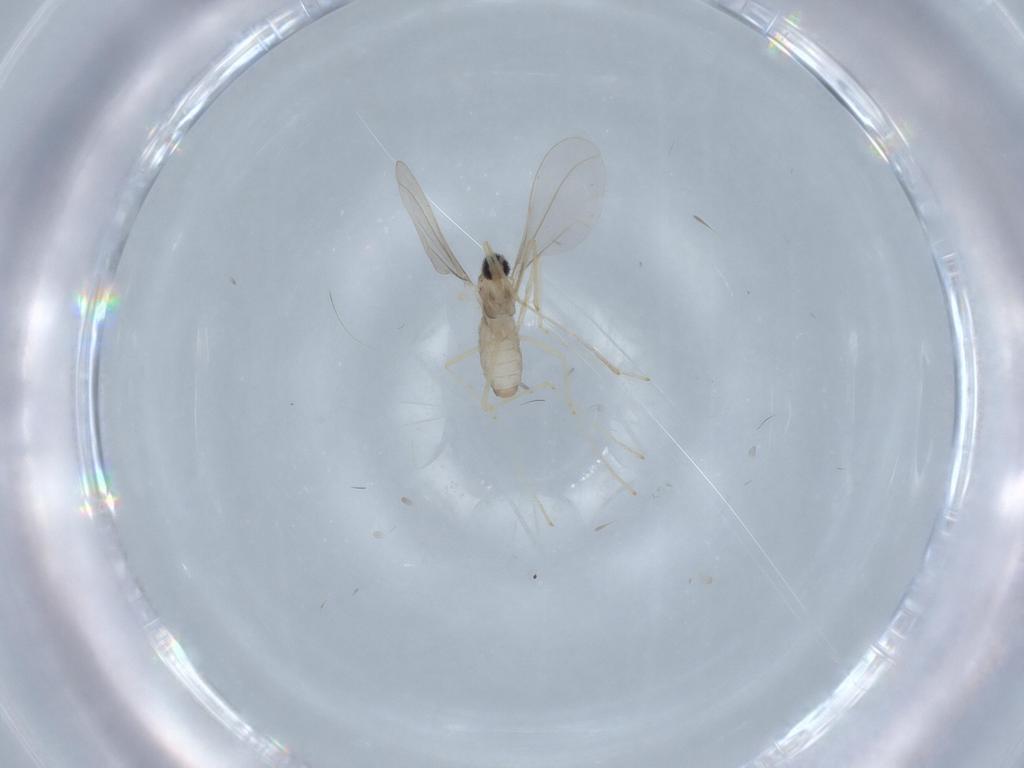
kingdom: Animalia
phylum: Arthropoda
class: Insecta
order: Diptera
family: Cecidomyiidae
